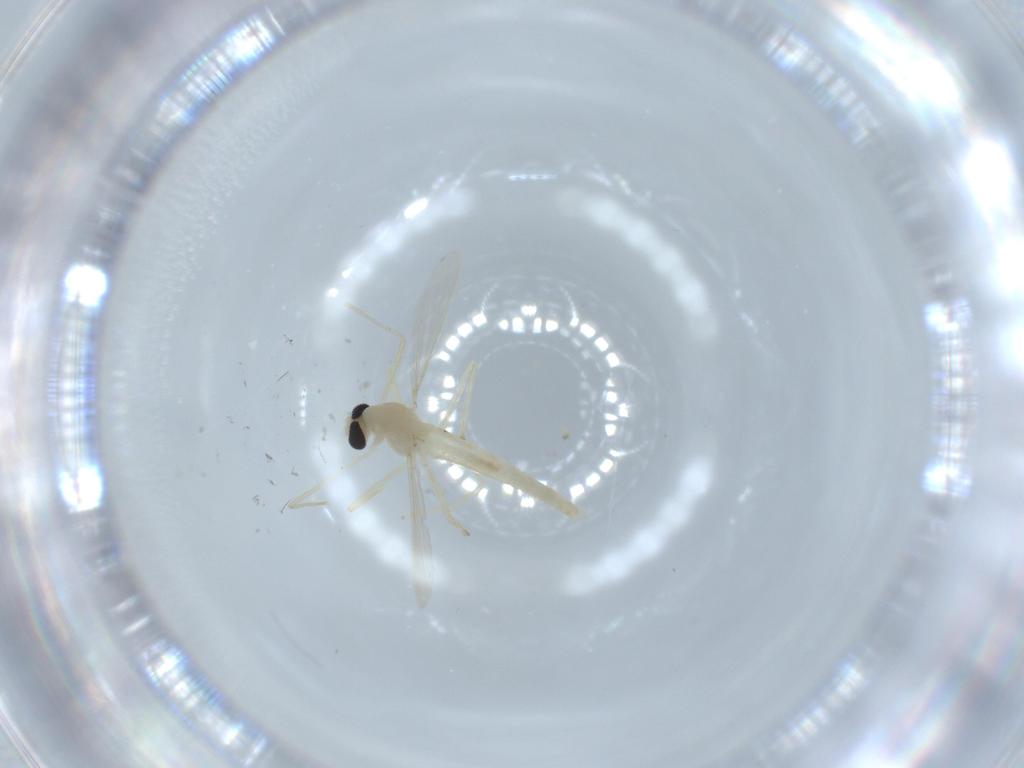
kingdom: Animalia
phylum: Arthropoda
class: Insecta
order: Diptera
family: Chironomidae
